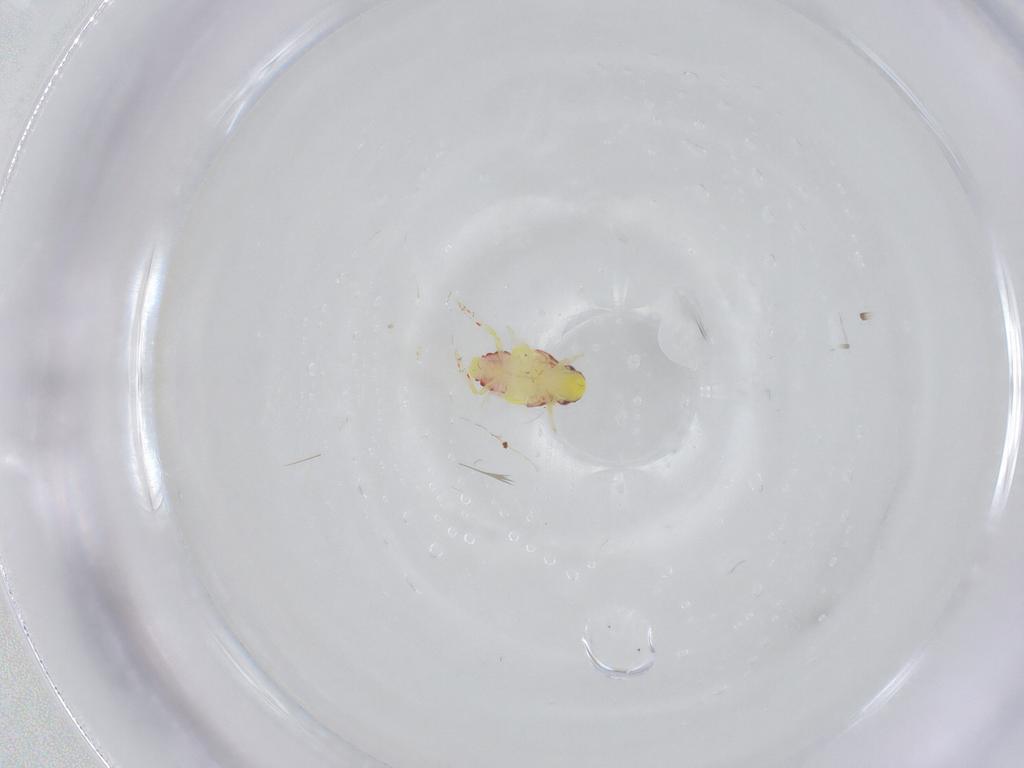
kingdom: Animalia
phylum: Arthropoda
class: Insecta
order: Hemiptera
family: Tropiduchidae
